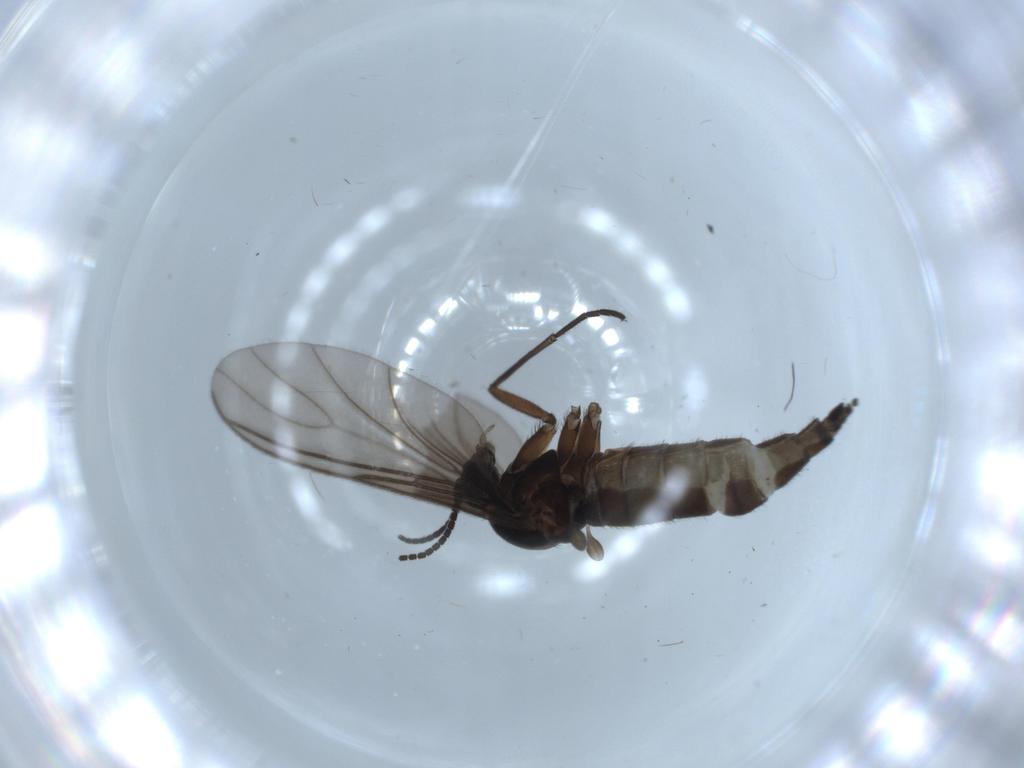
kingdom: Animalia
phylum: Arthropoda
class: Insecta
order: Diptera
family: Sciaridae
